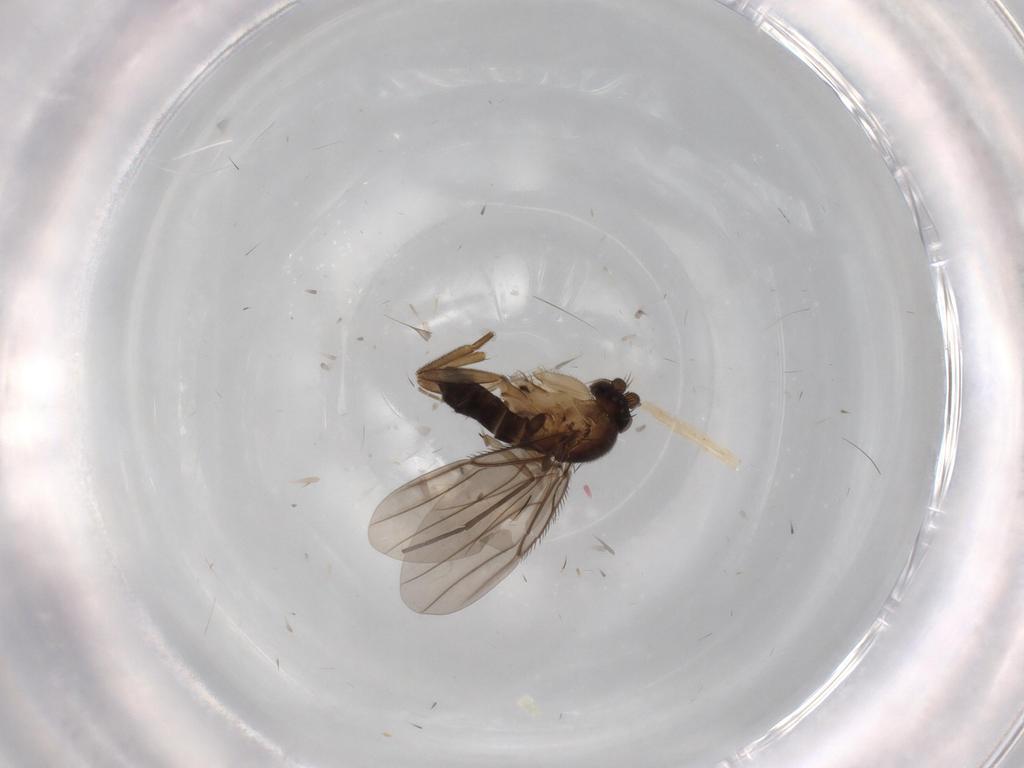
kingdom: Animalia
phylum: Arthropoda
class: Insecta
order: Diptera
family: Sciaridae
